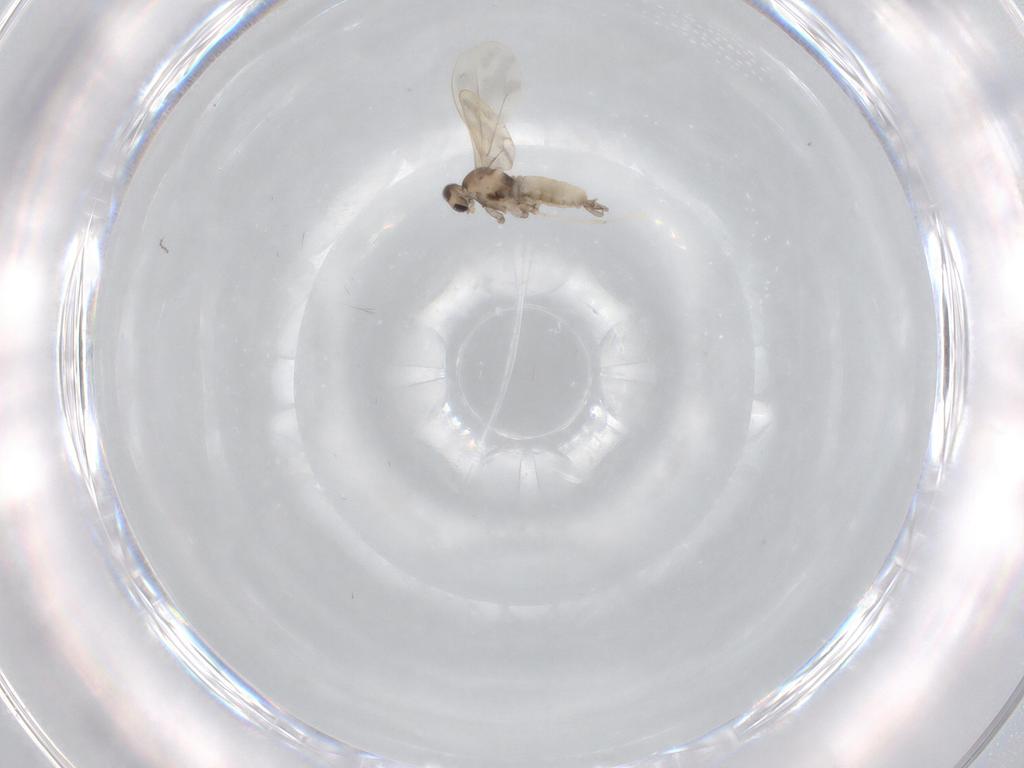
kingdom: Animalia
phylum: Arthropoda
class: Insecta
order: Diptera
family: Cecidomyiidae
